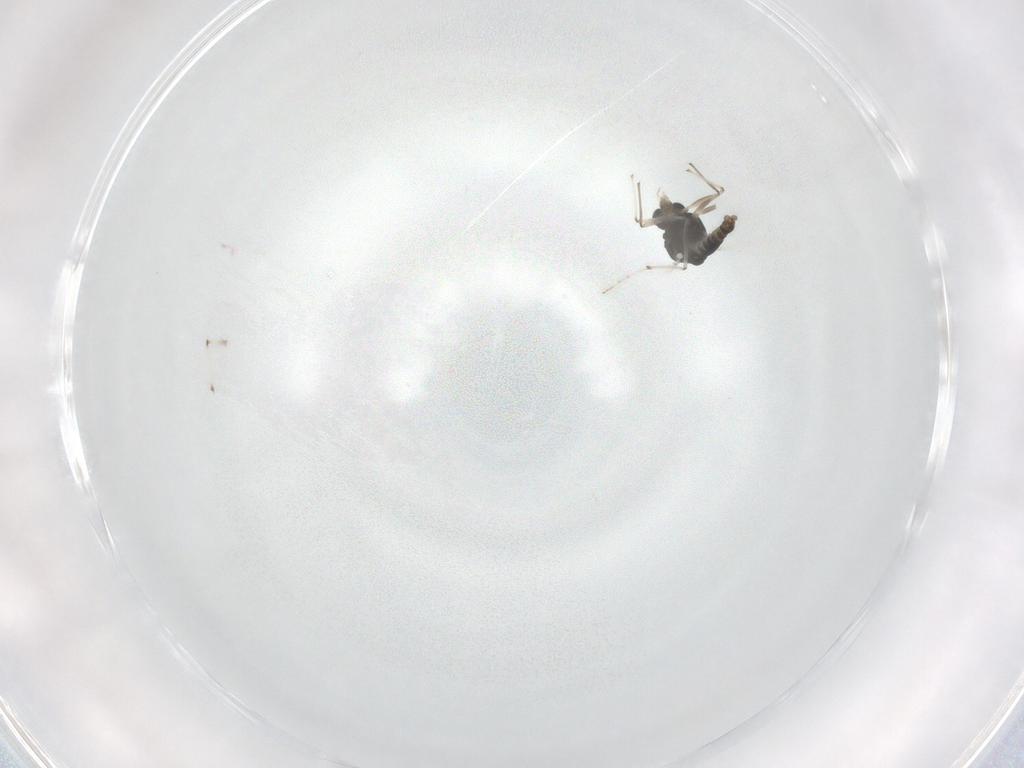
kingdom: Animalia
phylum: Arthropoda
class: Insecta
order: Diptera
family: Chironomidae
